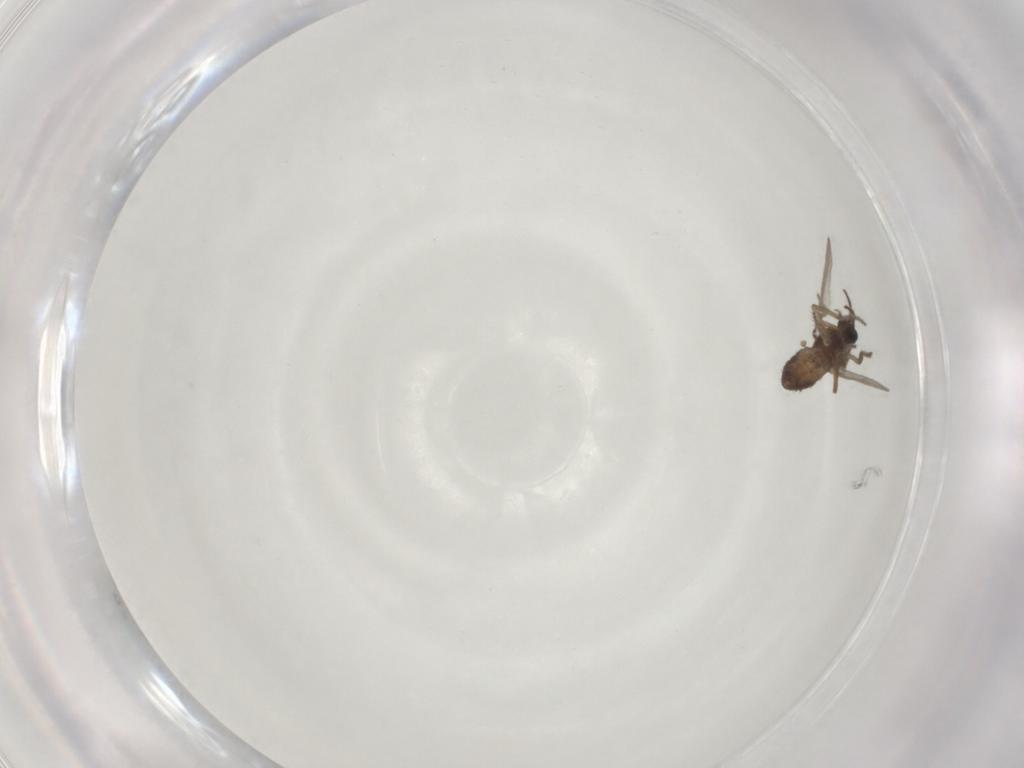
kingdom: Animalia
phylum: Arthropoda
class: Insecta
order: Diptera
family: Ceratopogonidae
